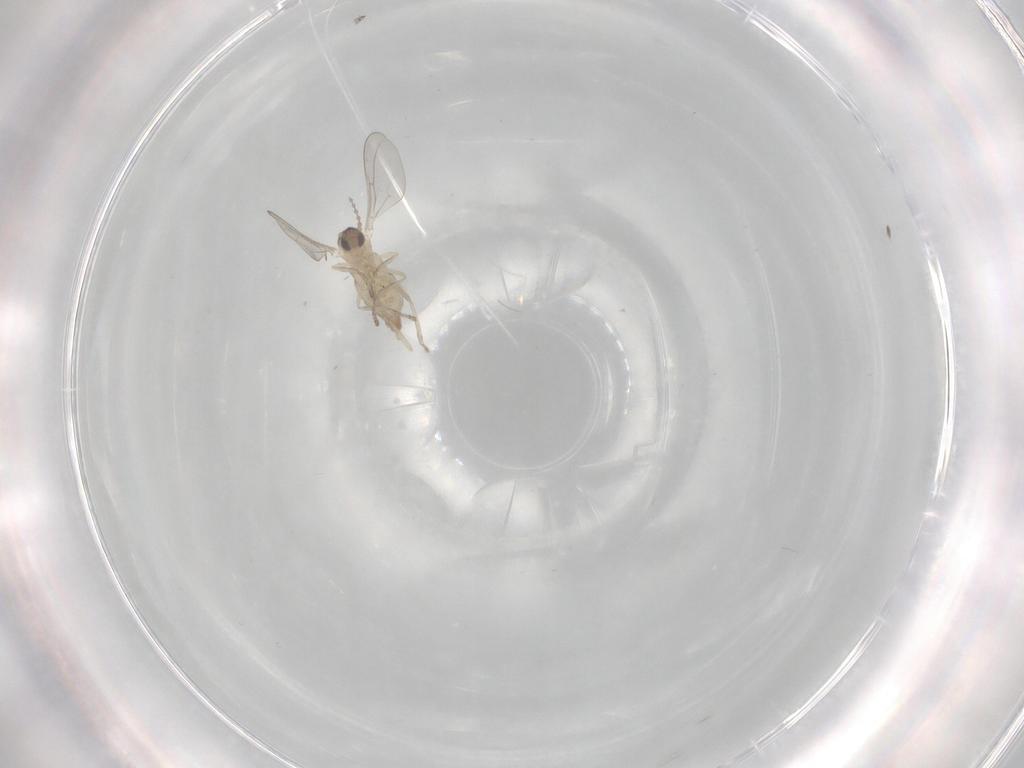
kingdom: Animalia
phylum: Arthropoda
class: Insecta
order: Diptera
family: Cecidomyiidae
